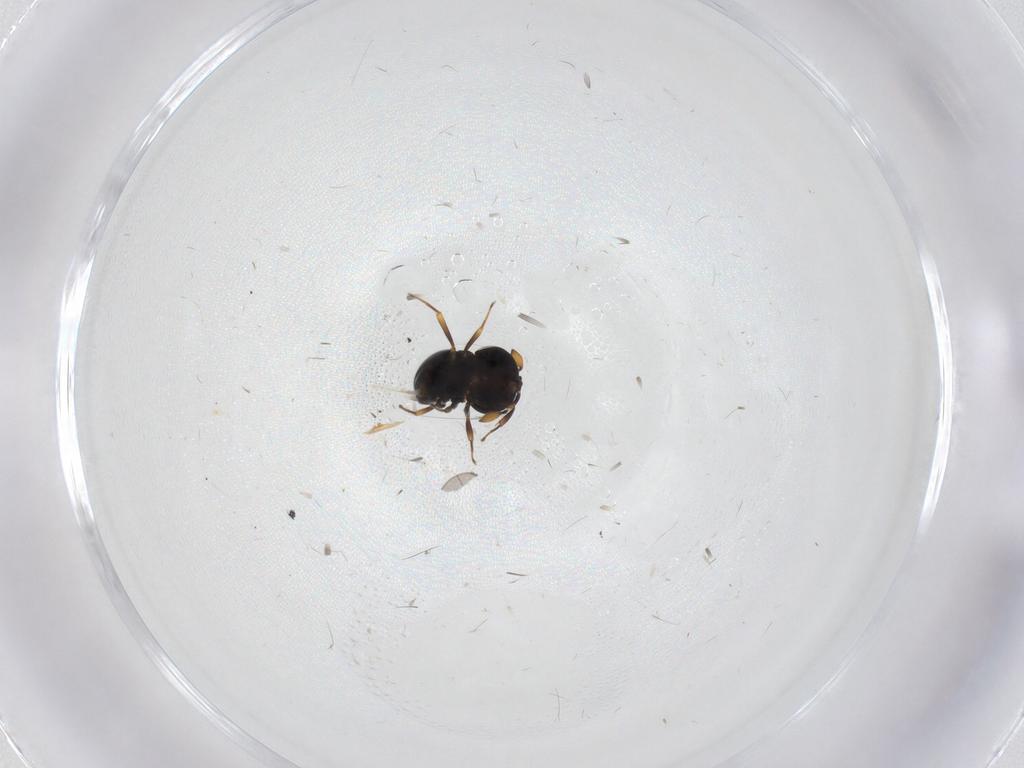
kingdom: Animalia
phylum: Arthropoda
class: Insecta
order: Hymenoptera
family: Scelionidae
